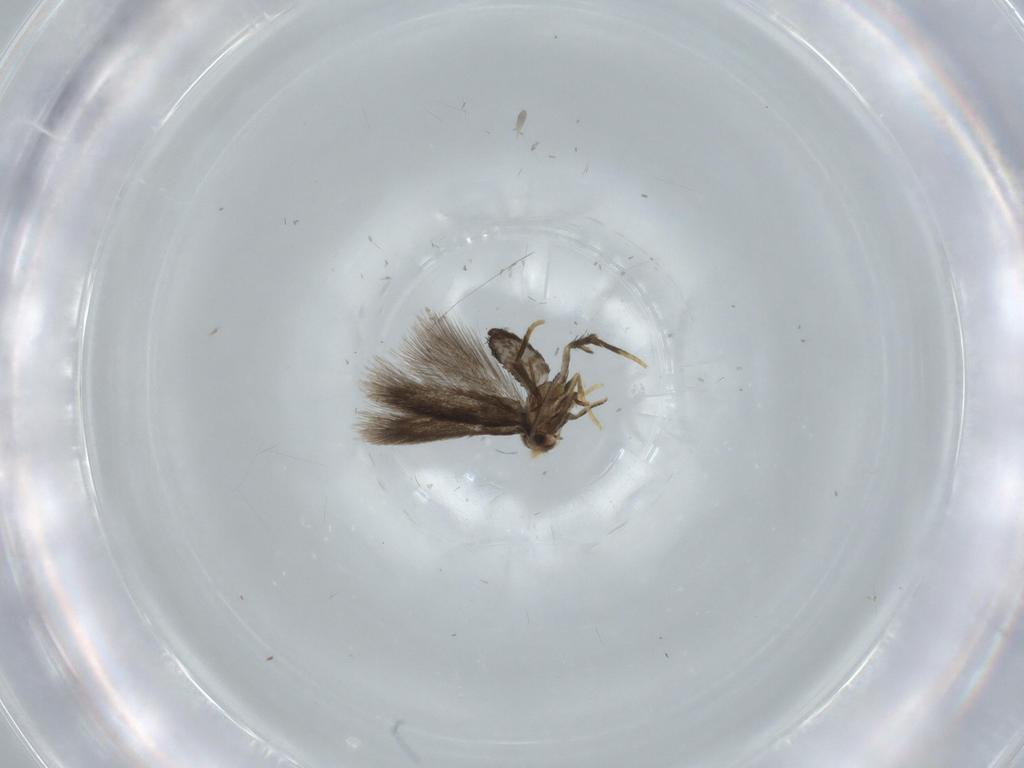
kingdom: Animalia
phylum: Arthropoda
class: Insecta
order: Lepidoptera
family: Nepticulidae
